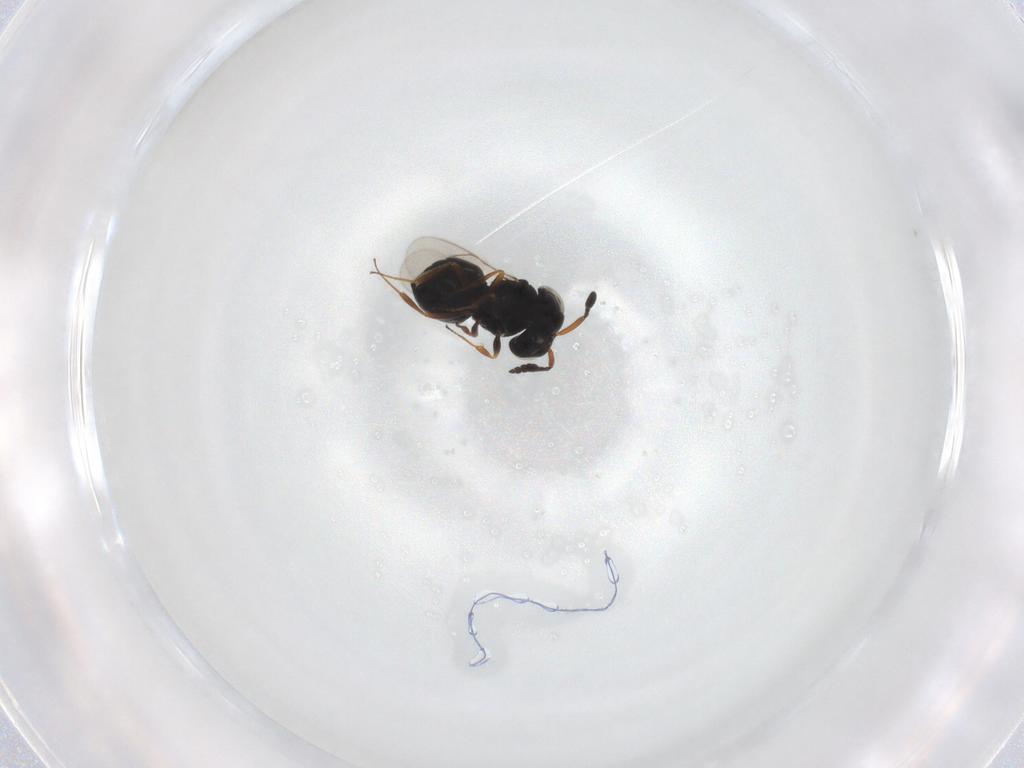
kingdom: Animalia
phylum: Arthropoda
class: Insecta
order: Hymenoptera
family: Scelionidae
